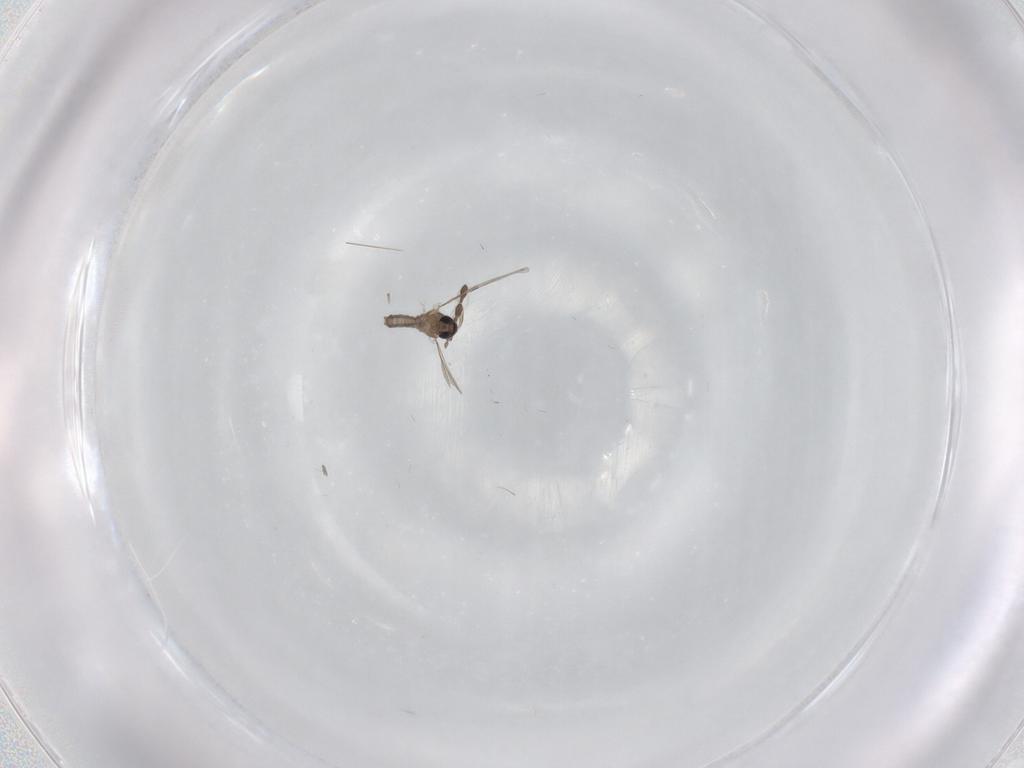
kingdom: Animalia
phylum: Arthropoda
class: Insecta
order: Diptera
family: Psychodidae
